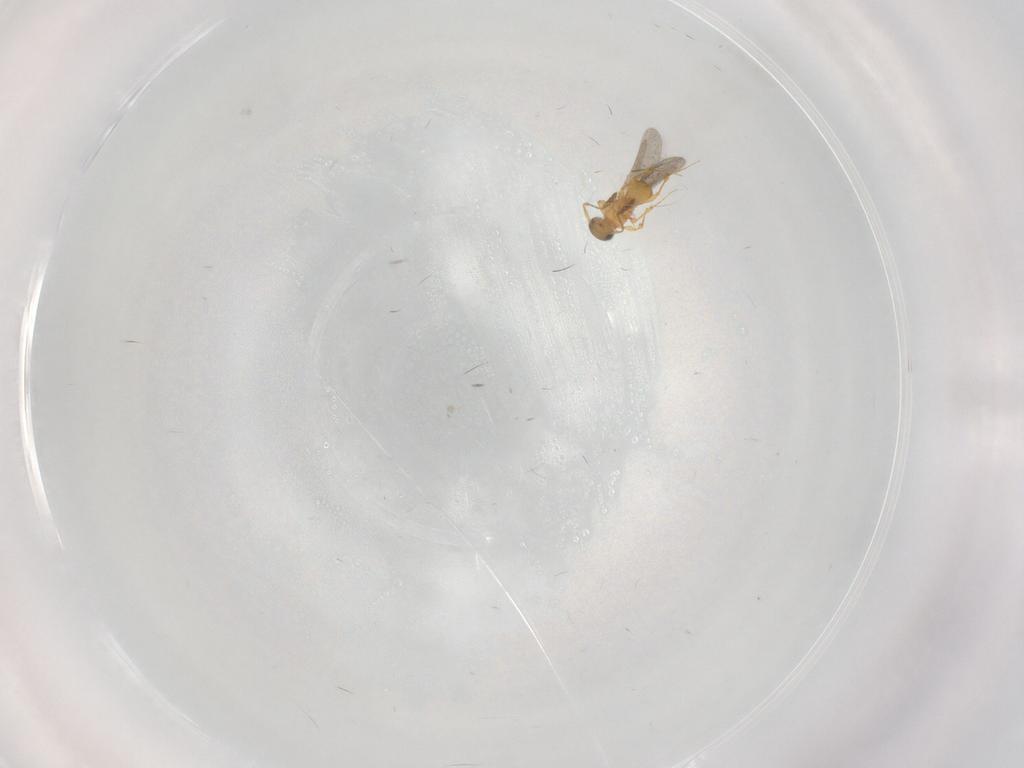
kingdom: Animalia
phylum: Arthropoda
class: Insecta
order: Hymenoptera
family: Platygastridae
